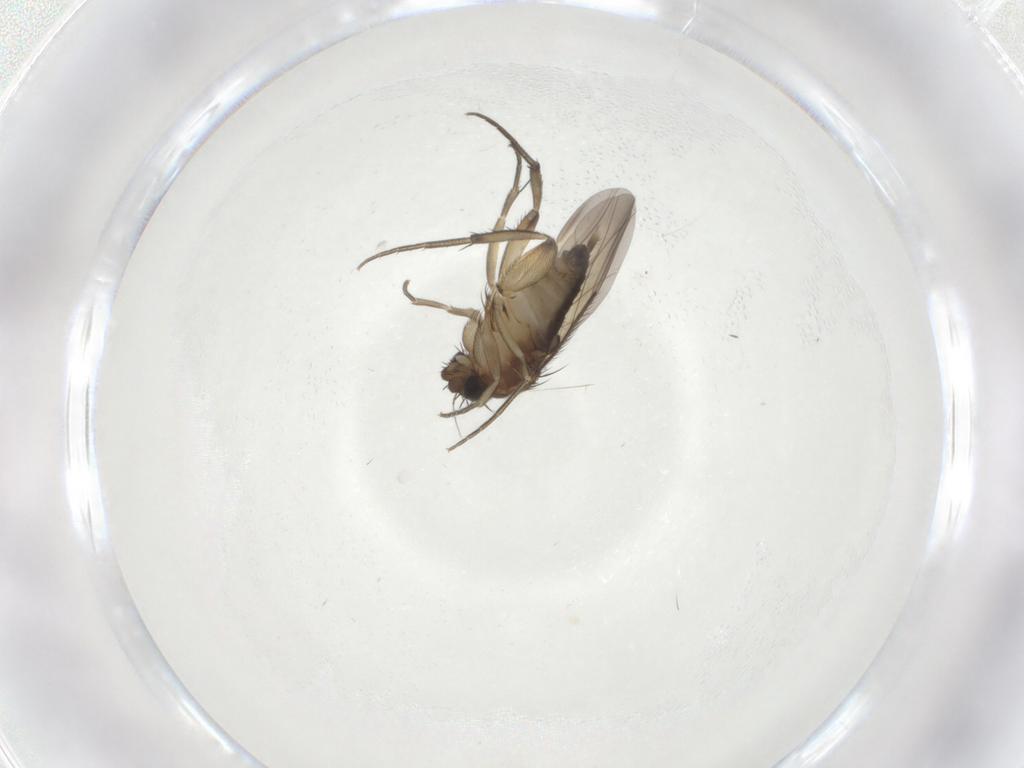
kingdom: Animalia
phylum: Arthropoda
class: Insecta
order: Diptera
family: Phoridae
